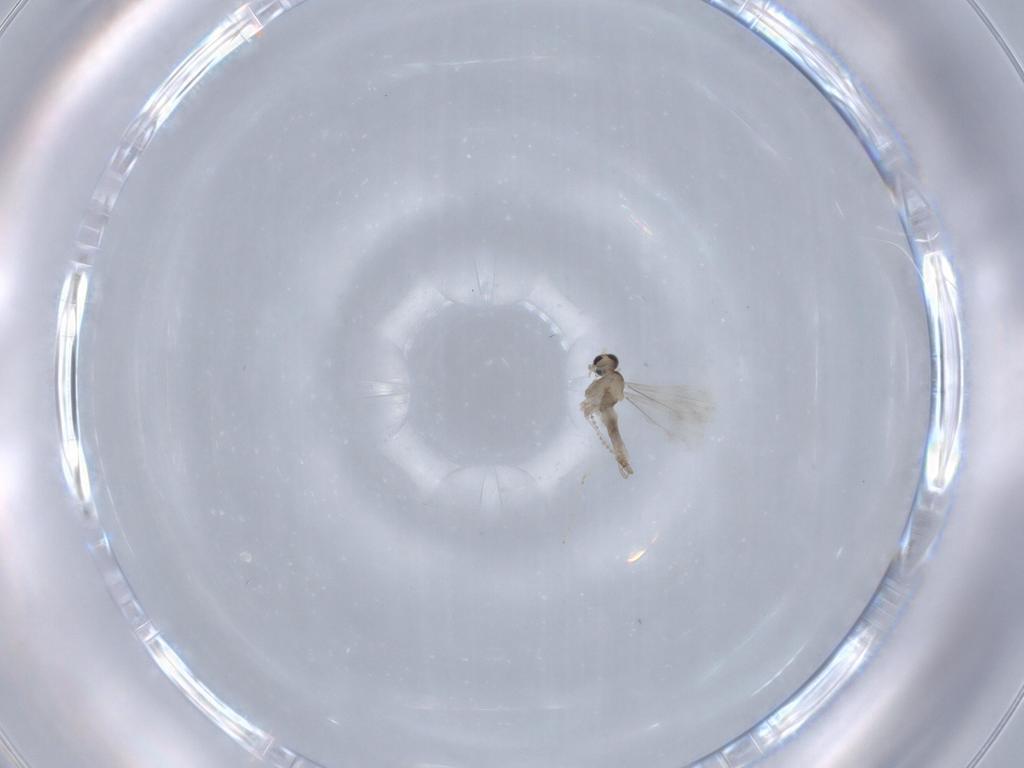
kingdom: Animalia
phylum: Arthropoda
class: Insecta
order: Diptera
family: Cecidomyiidae
